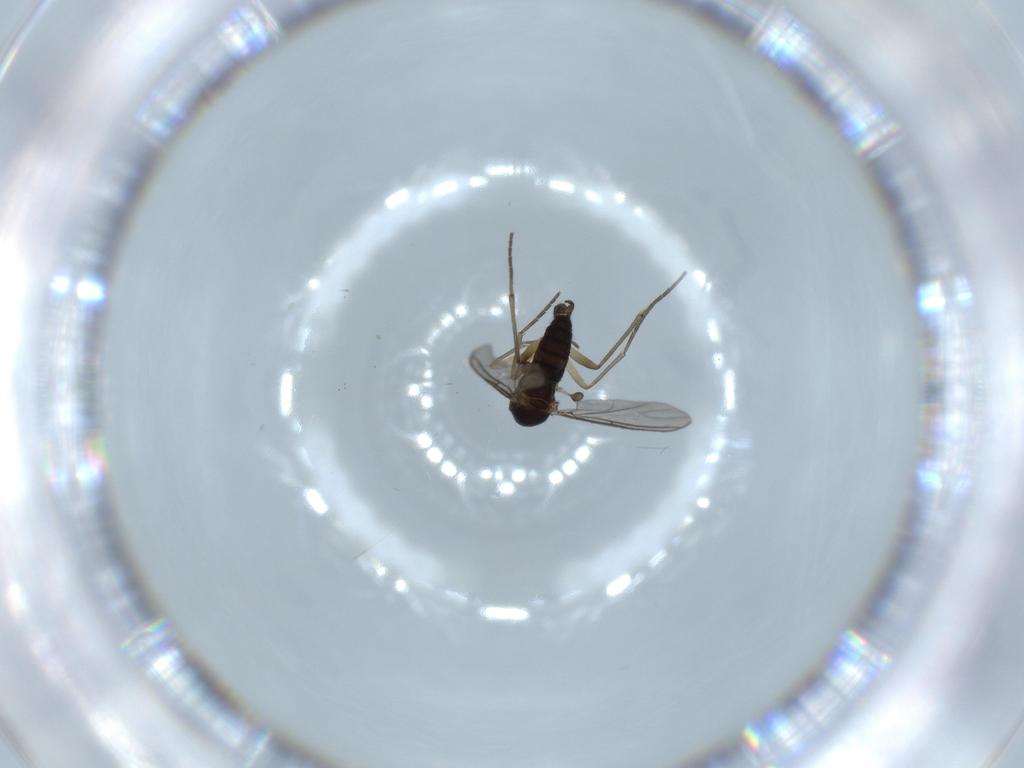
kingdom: Animalia
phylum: Arthropoda
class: Insecta
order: Diptera
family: Sciaridae
